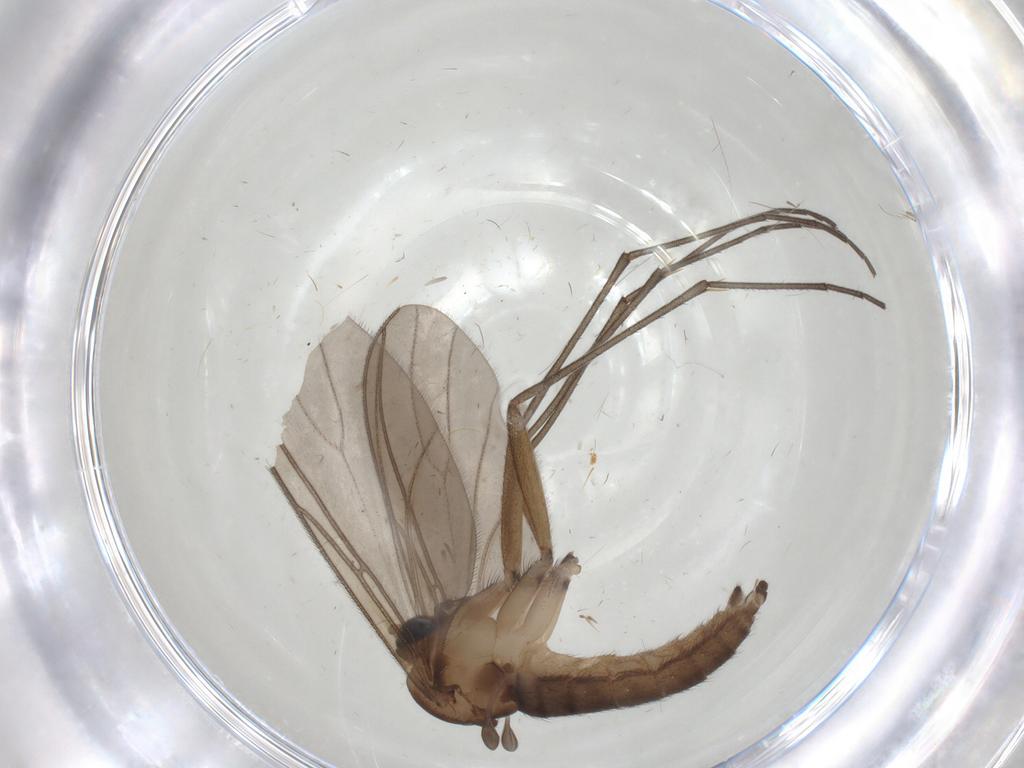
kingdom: Animalia
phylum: Arthropoda
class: Insecta
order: Diptera
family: Sciaridae
